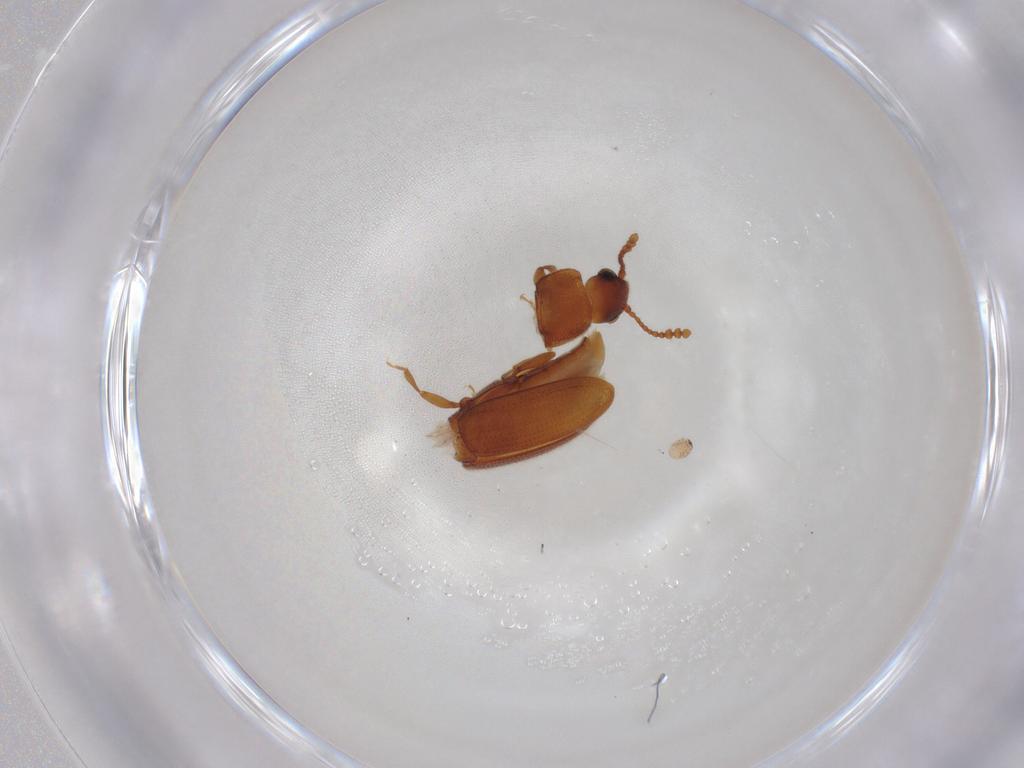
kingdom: Animalia
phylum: Arthropoda
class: Insecta
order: Coleoptera
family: Erotylidae
